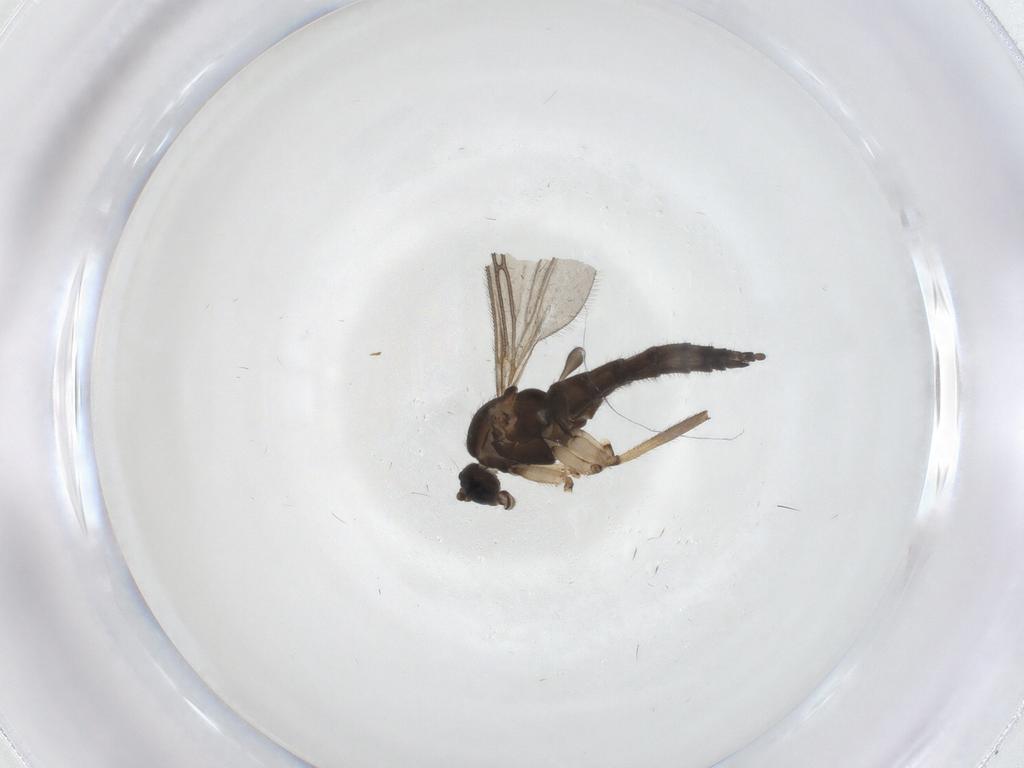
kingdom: Animalia
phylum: Arthropoda
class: Insecta
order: Diptera
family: Sciaridae
